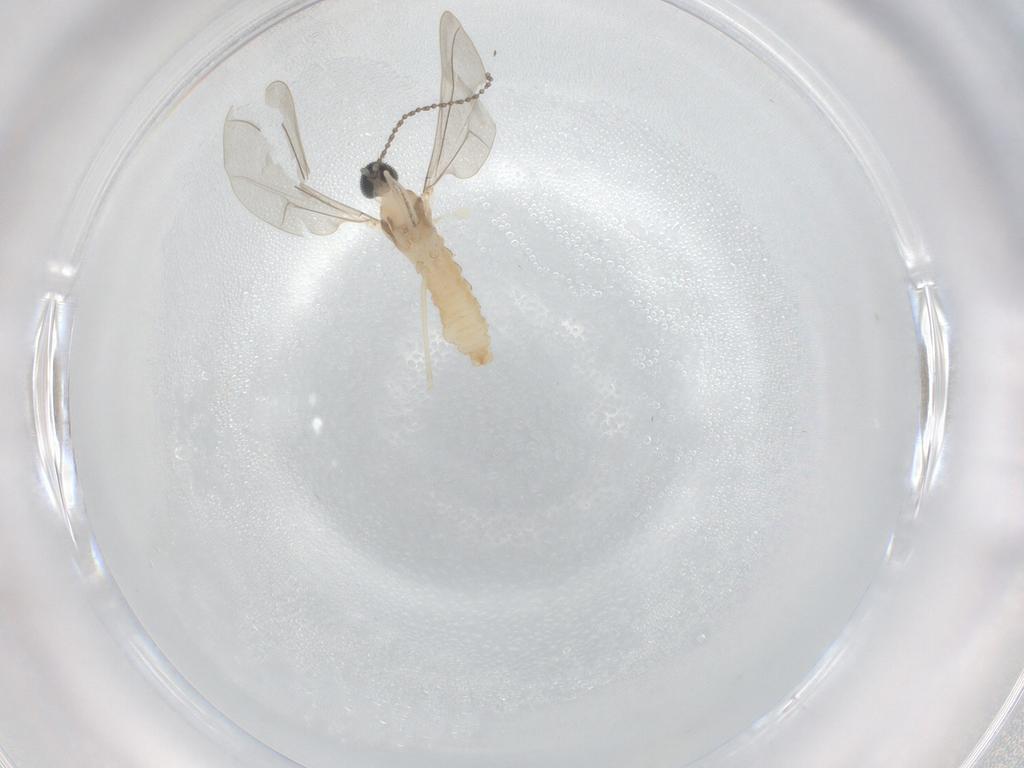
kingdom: Animalia
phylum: Arthropoda
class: Insecta
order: Diptera
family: Cecidomyiidae
